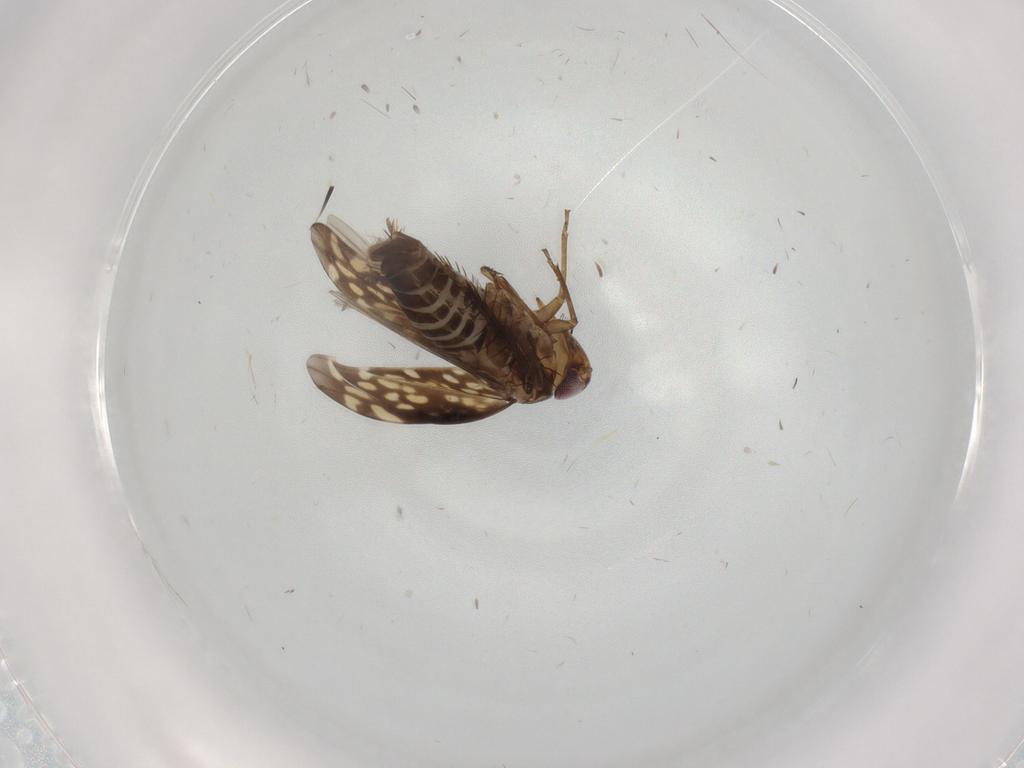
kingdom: Animalia
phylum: Arthropoda
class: Insecta
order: Hemiptera
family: Cicadellidae
